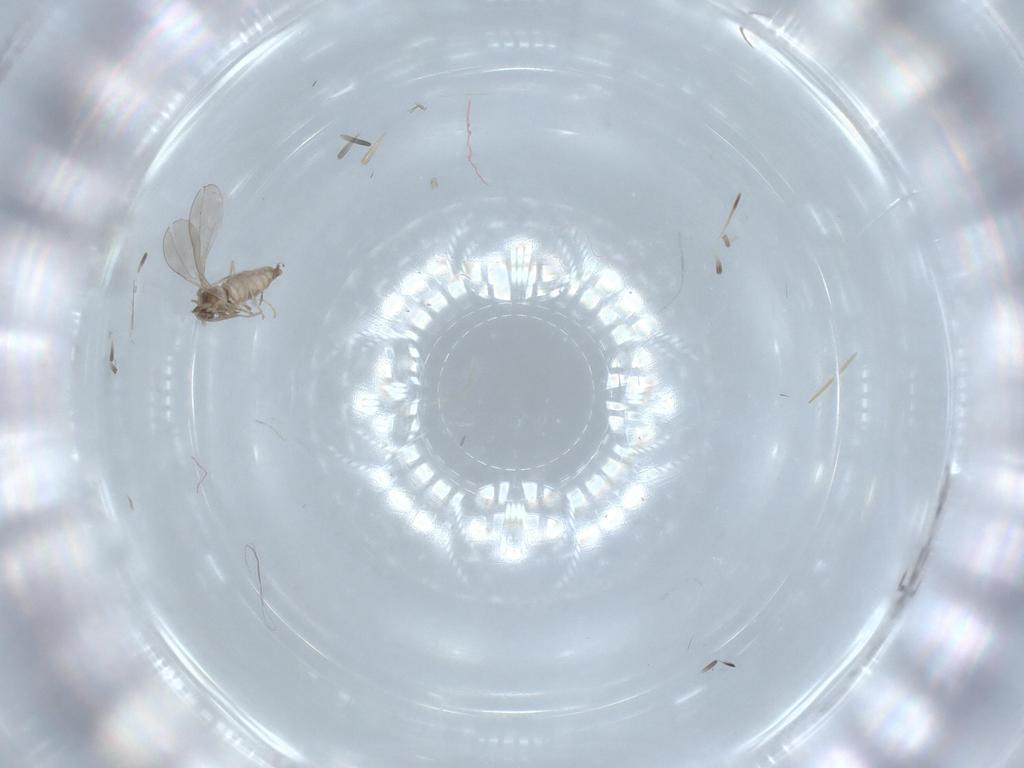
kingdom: Animalia
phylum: Arthropoda
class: Insecta
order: Diptera
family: Cecidomyiidae
